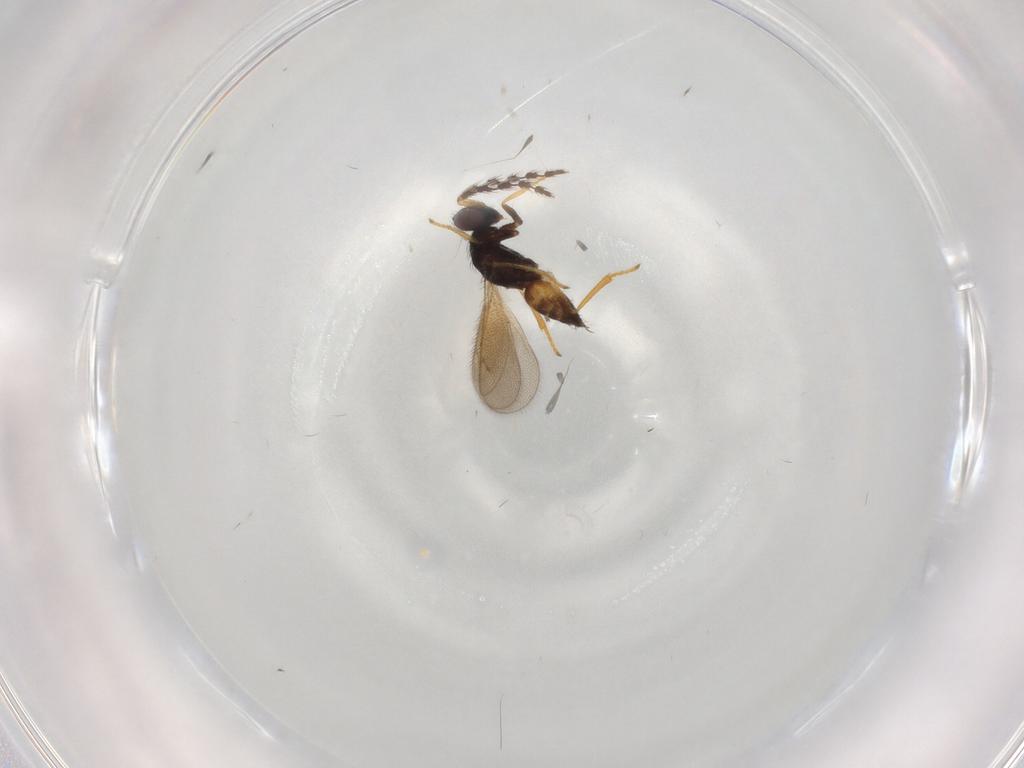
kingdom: Animalia
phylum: Arthropoda
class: Insecta
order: Hymenoptera
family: Eulophidae
